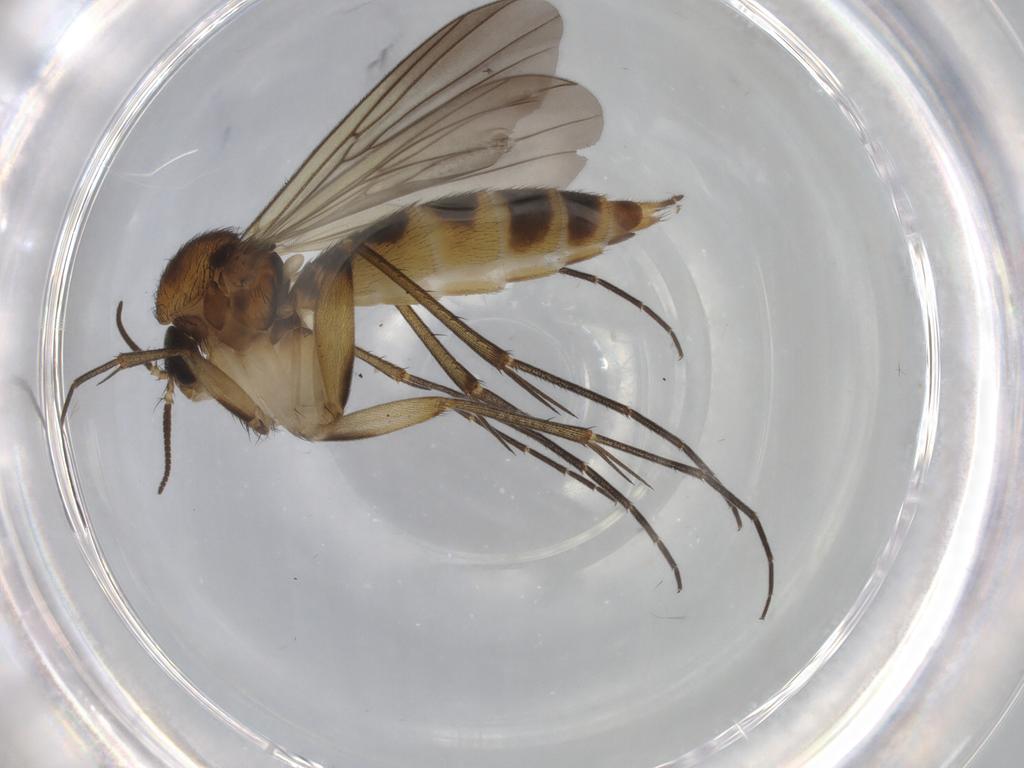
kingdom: Animalia
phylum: Arthropoda
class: Insecta
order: Diptera
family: Mycetophilidae
